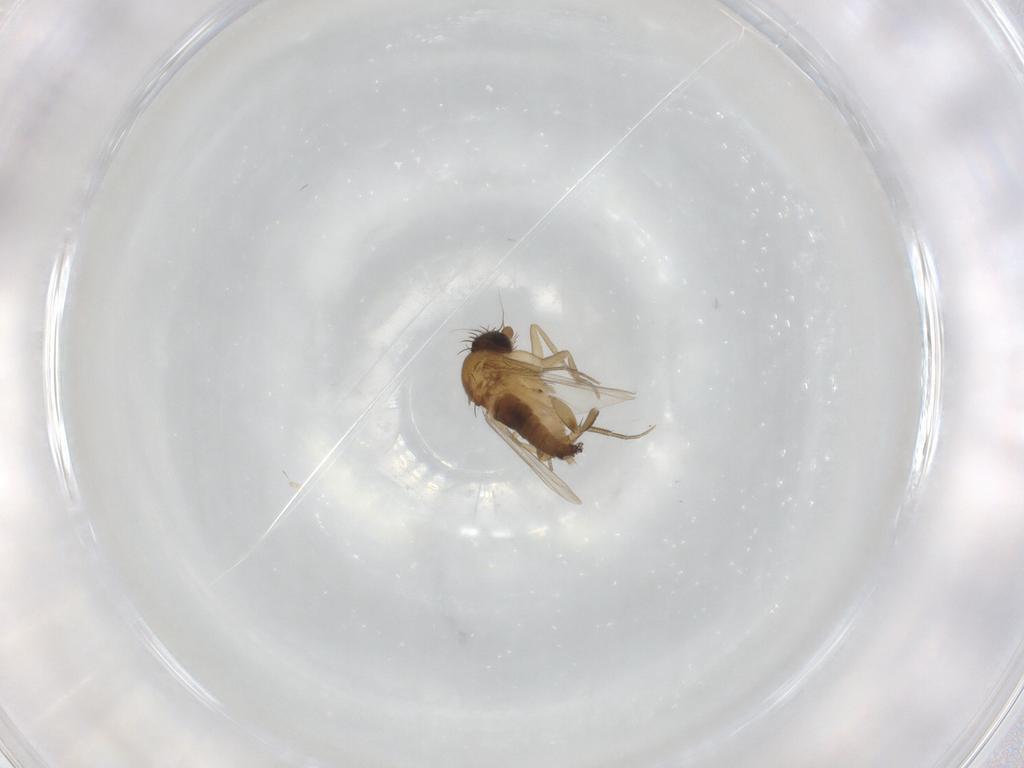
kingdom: Animalia
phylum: Arthropoda
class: Insecta
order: Diptera
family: Phoridae
